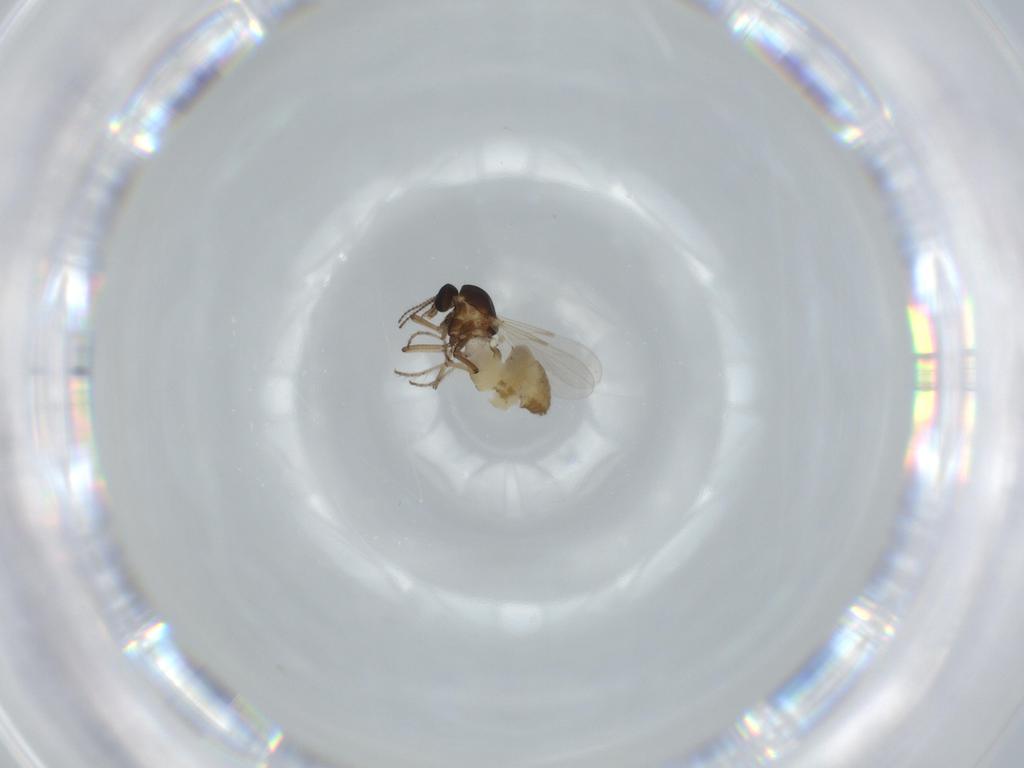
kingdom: Animalia
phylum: Arthropoda
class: Insecta
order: Diptera
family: Ceratopogonidae
